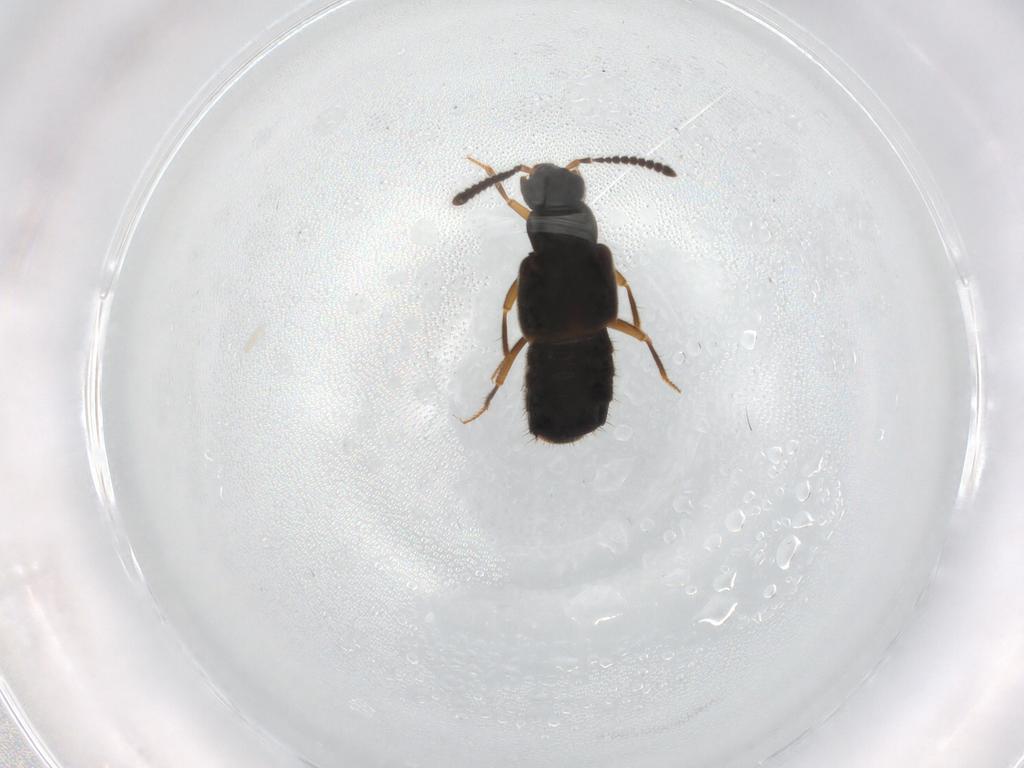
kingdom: Animalia
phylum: Arthropoda
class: Insecta
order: Coleoptera
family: Staphylinidae
